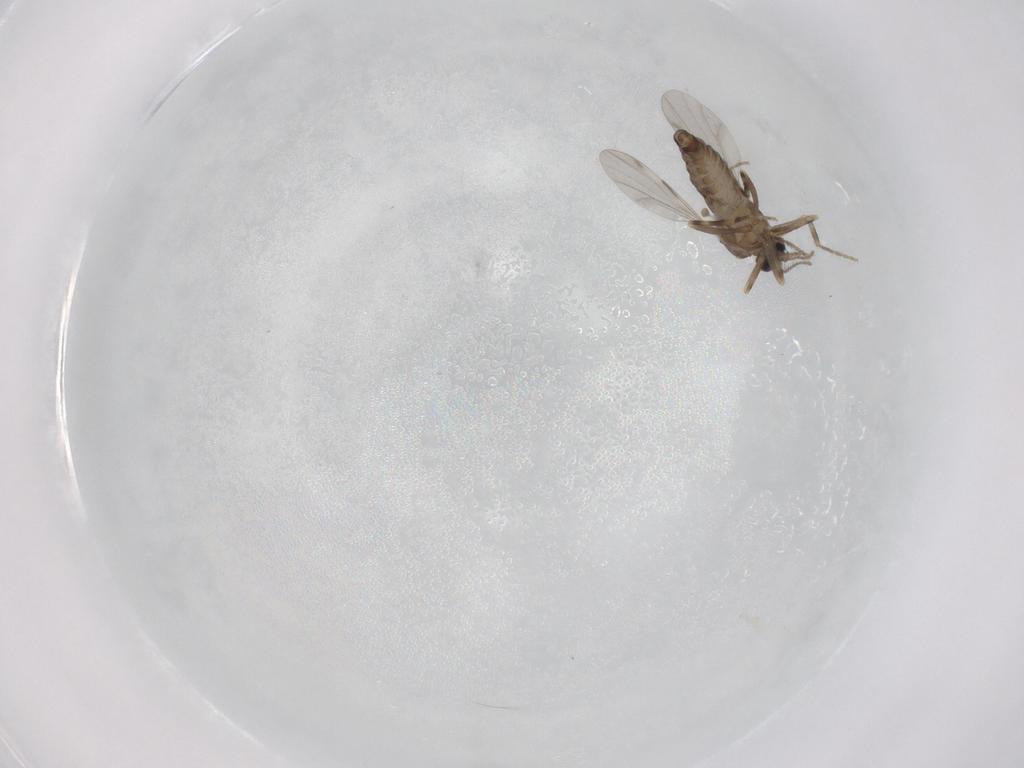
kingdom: Animalia
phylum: Arthropoda
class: Insecta
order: Diptera
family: Ceratopogonidae
